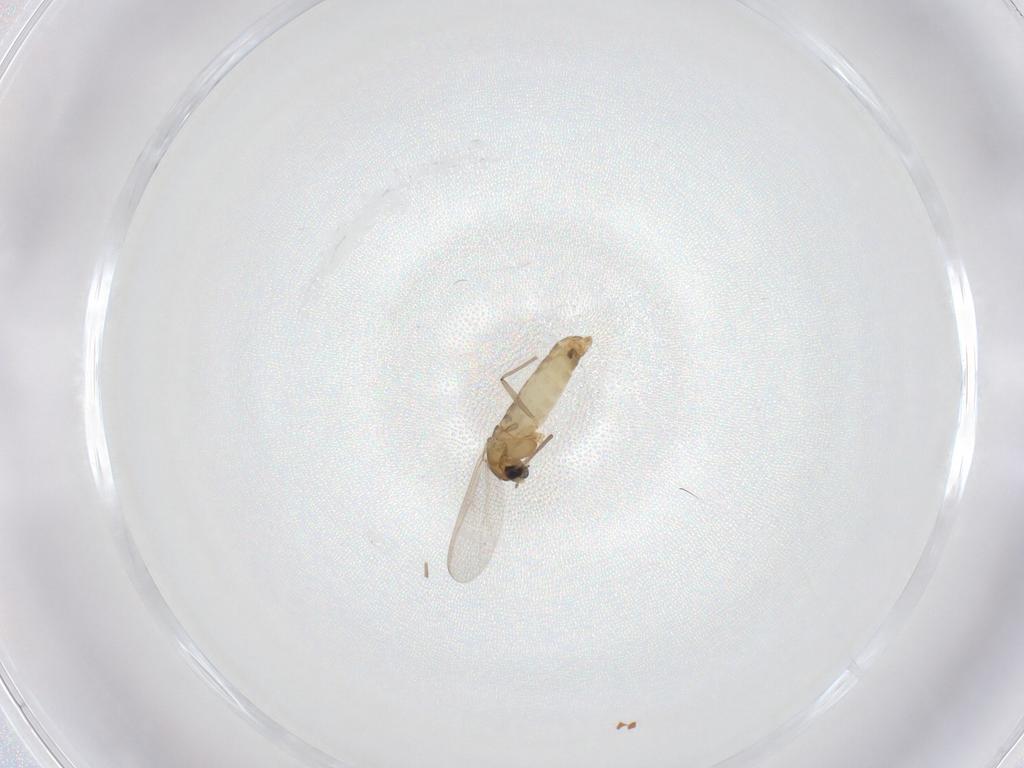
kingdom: Animalia
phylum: Arthropoda
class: Insecta
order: Diptera
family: Chironomidae
